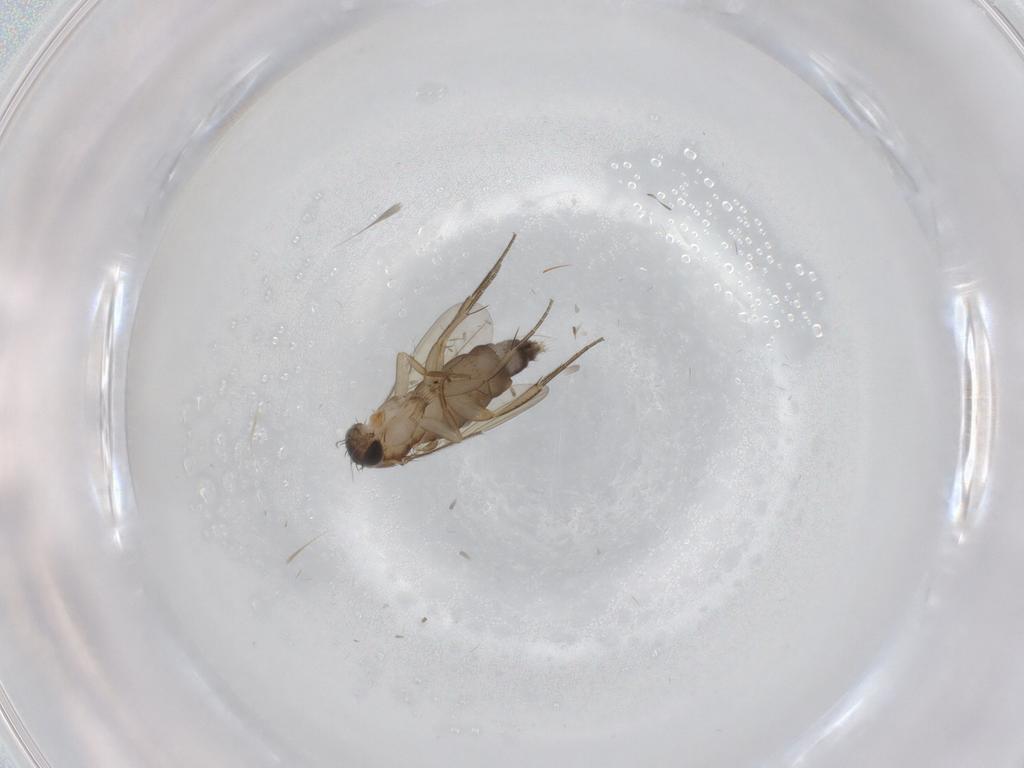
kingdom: Animalia
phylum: Arthropoda
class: Insecta
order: Diptera
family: Phoridae
